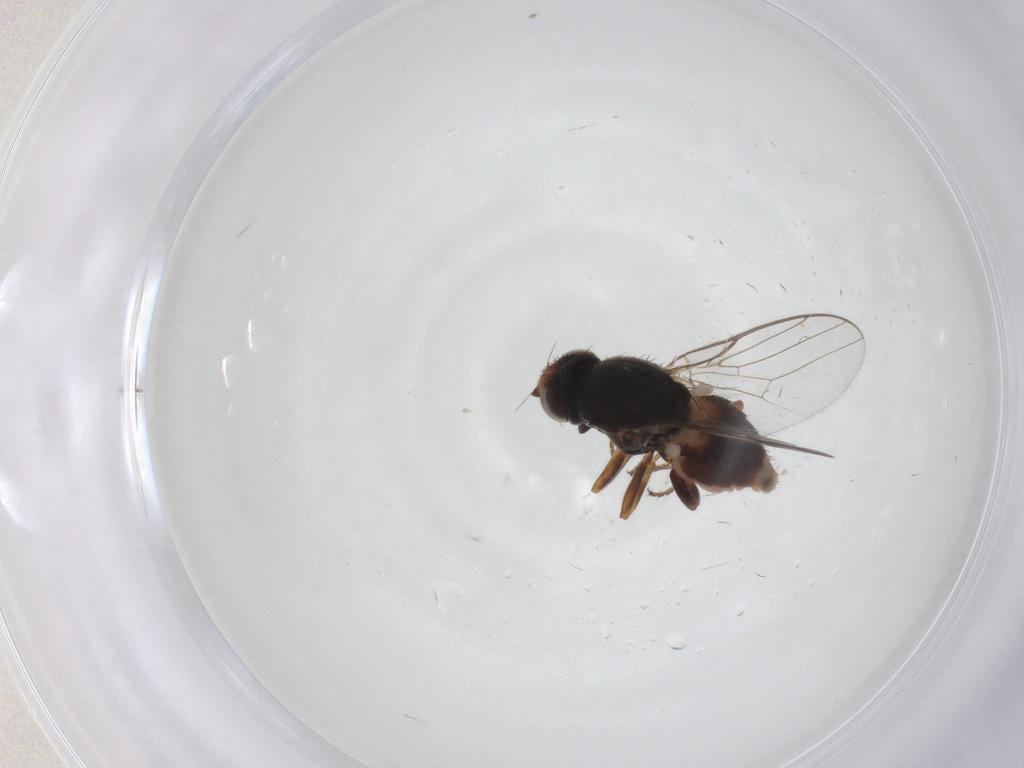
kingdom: Animalia
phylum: Arthropoda
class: Insecta
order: Diptera
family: Chloropidae
